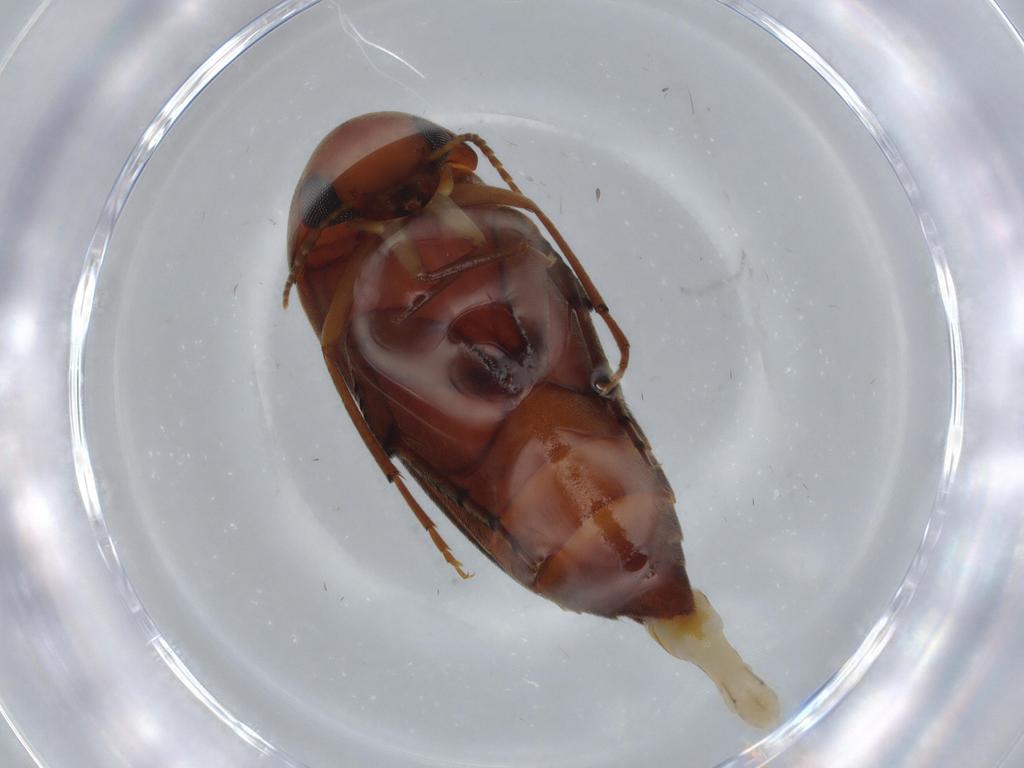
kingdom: Animalia
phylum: Arthropoda
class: Insecta
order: Coleoptera
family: Mordellidae
